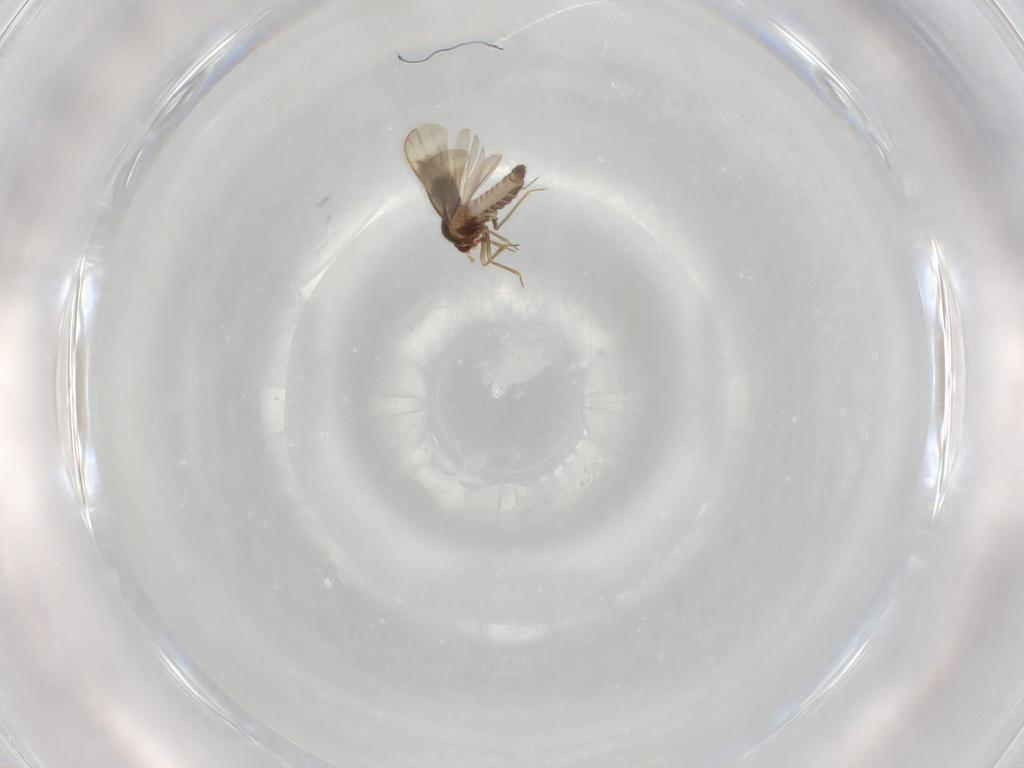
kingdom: Animalia
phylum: Arthropoda
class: Insecta
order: Hemiptera
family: Schizopteridae
